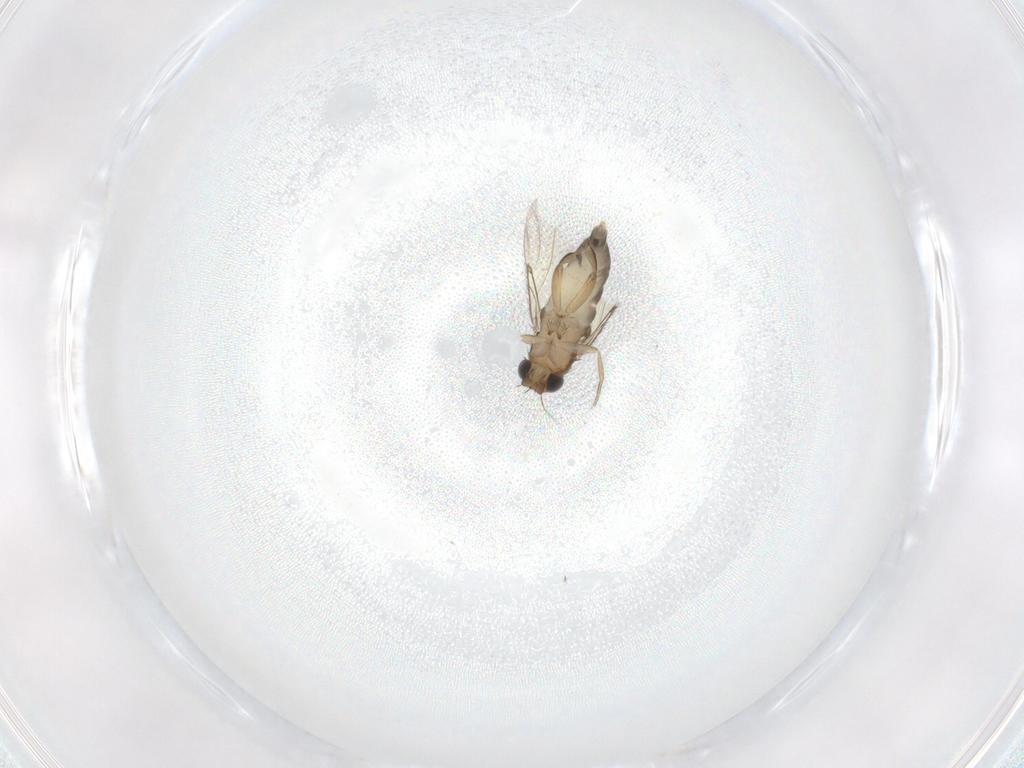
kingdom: Animalia
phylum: Arthropoda
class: Insecta
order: Diptera
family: Phoridae
